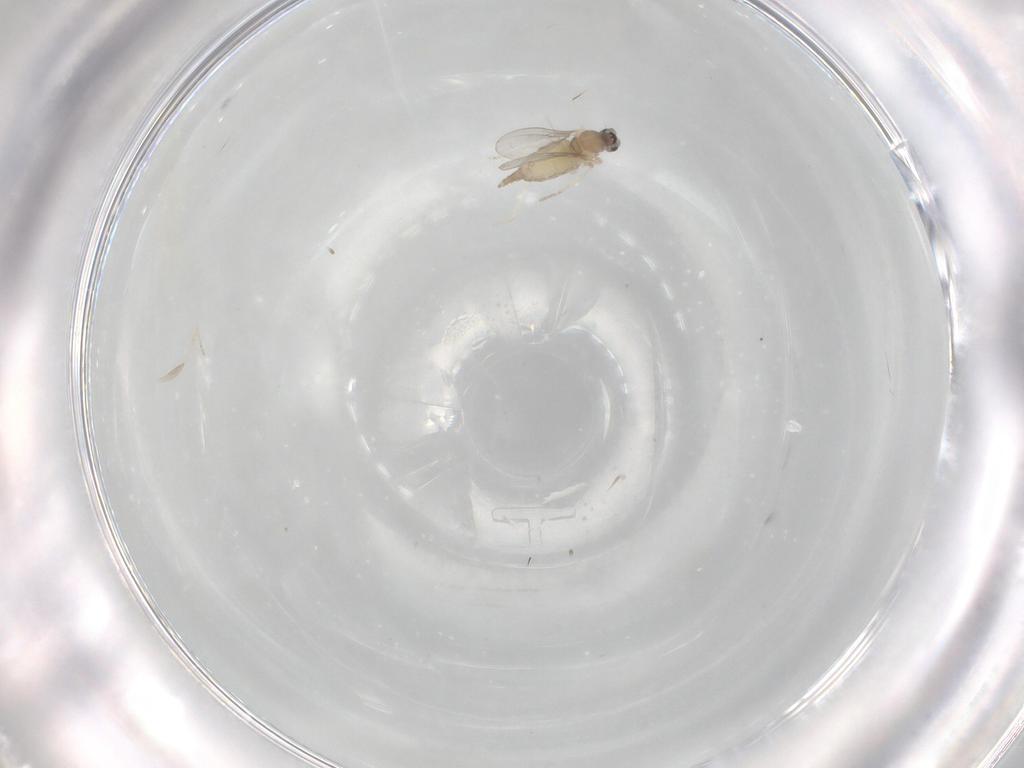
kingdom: Animalia
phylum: Arthropoda
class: Insecta
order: Diptera
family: Cecidomyiidae
